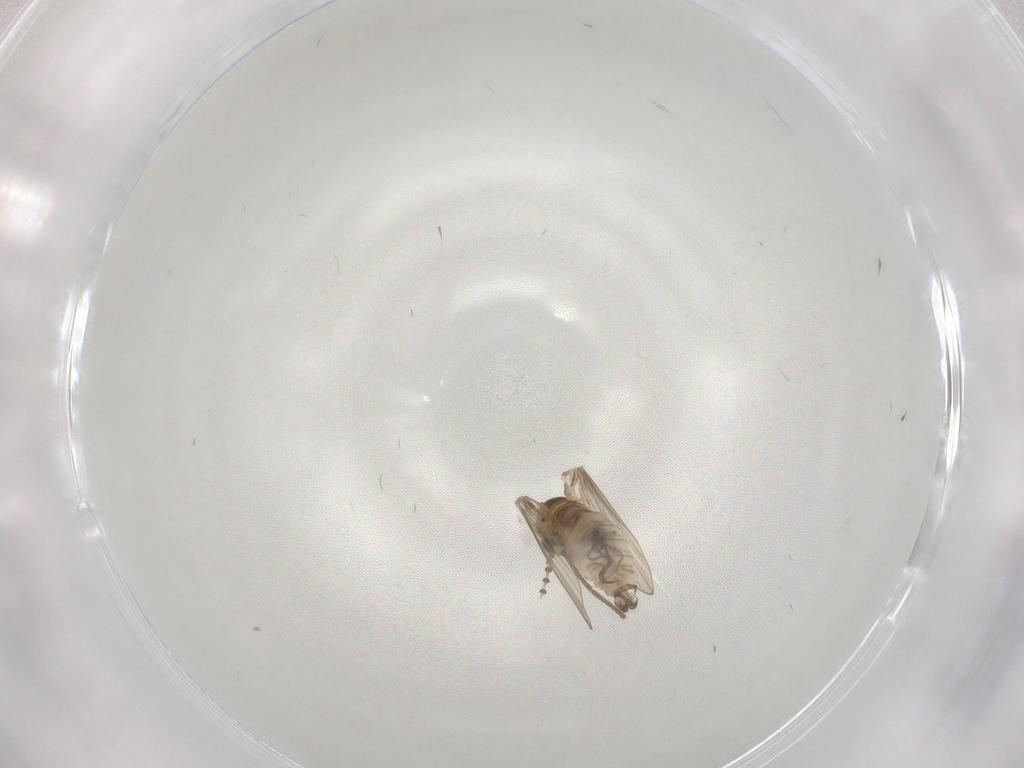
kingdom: Animalia
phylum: Arthropoda
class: Insecta
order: Diptera
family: Psychodidae
